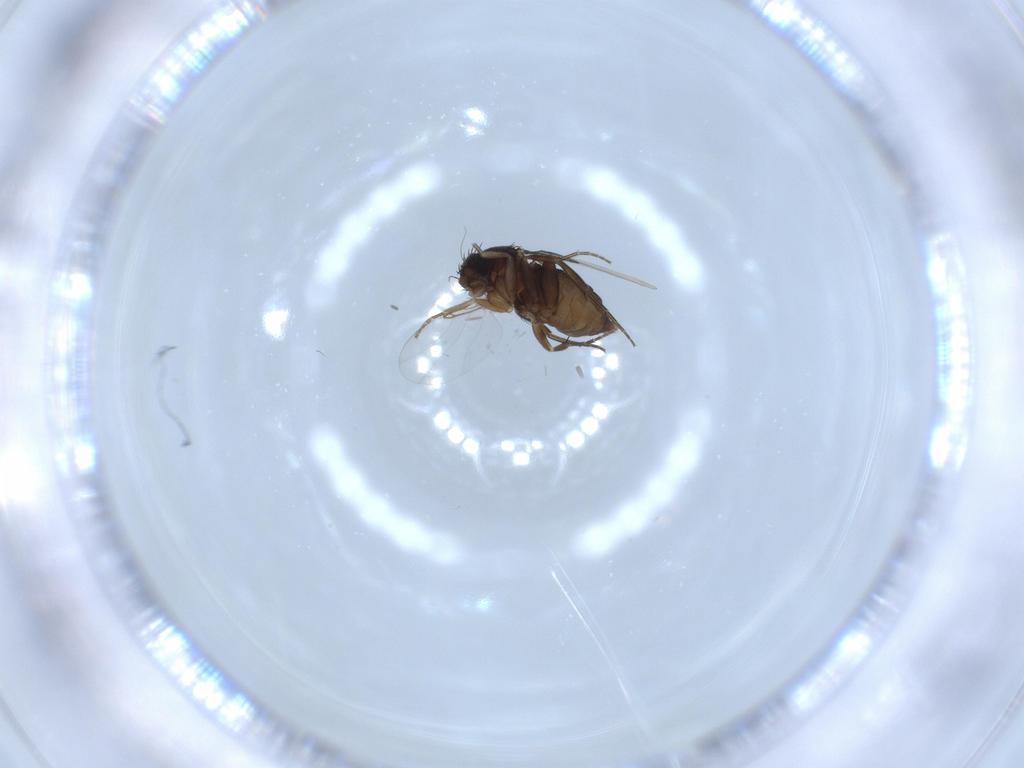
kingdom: Animalia
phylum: Arthropoda
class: Insecta
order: Diptera
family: Phoridae
